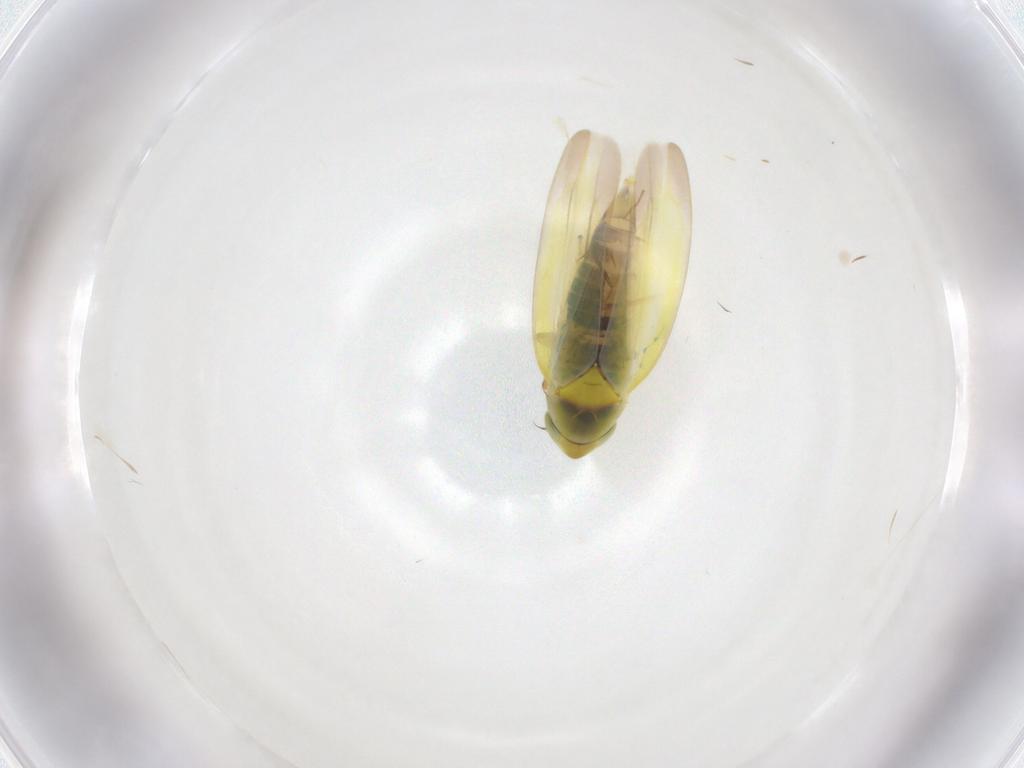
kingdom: Animalia
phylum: Arthropoda
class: Insecta
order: Hemiptera
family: Cicadellidae
